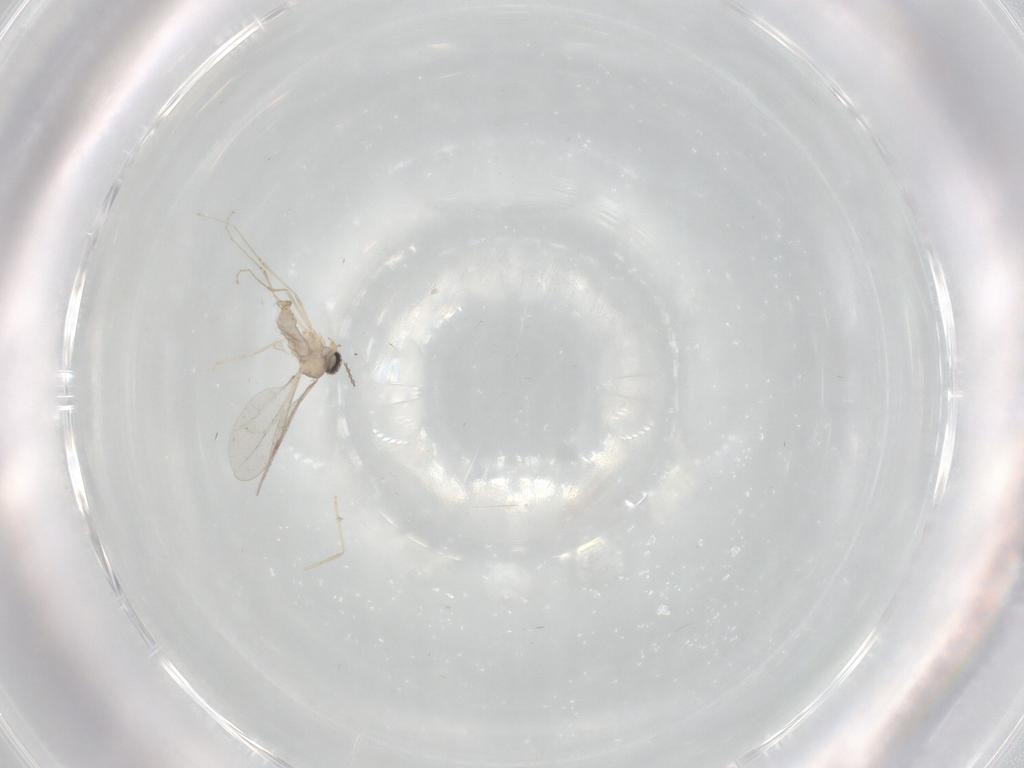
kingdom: Animalia
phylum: Arthropoda
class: Insecta
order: Diptera
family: Cecidomyiidae
